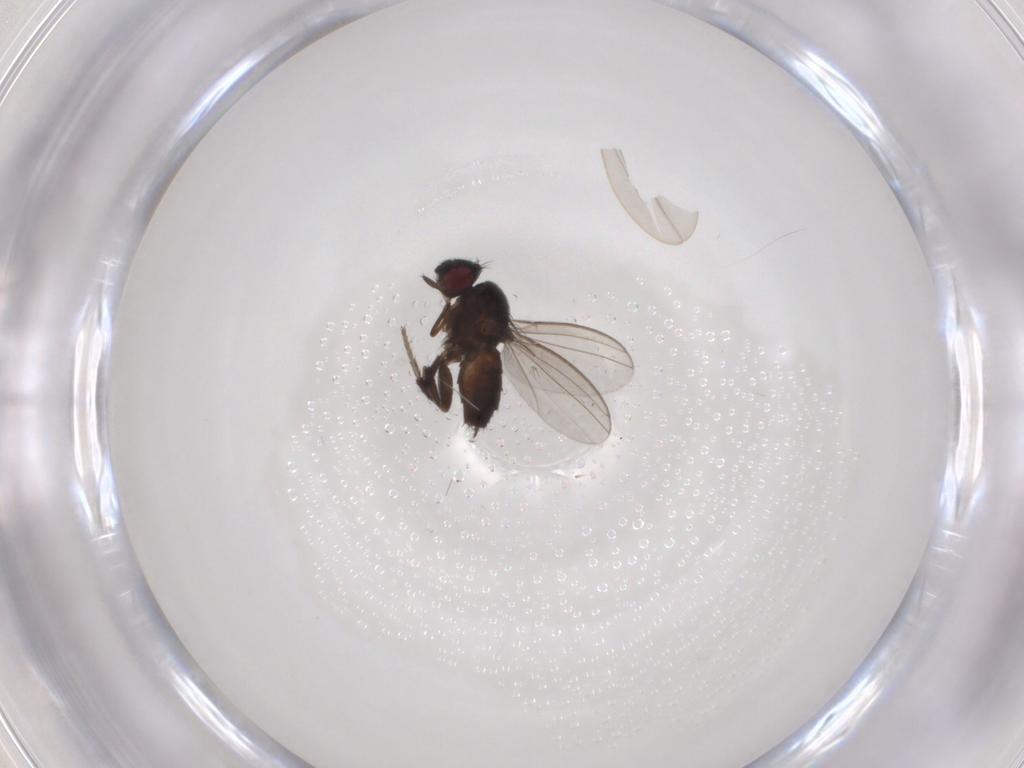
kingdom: Animalia
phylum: Arthropoda
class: Insecta
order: Diptera
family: Milichiidae
